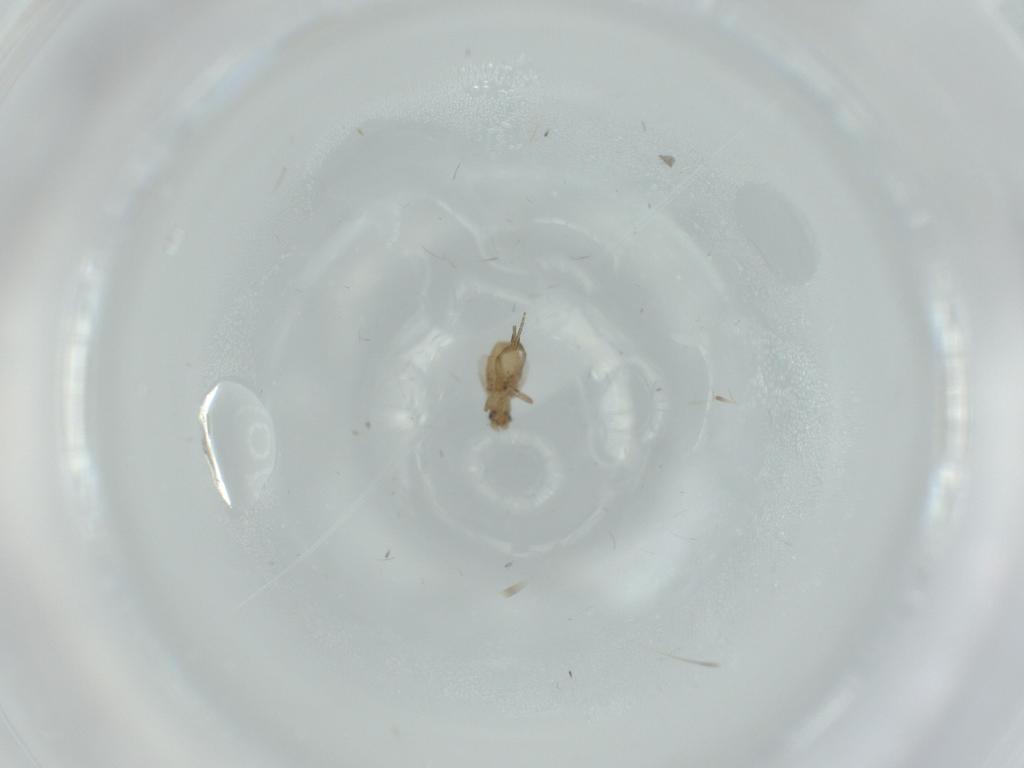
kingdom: Animalia
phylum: Arthropoda
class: Insecta
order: Diptera
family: Phoridae
